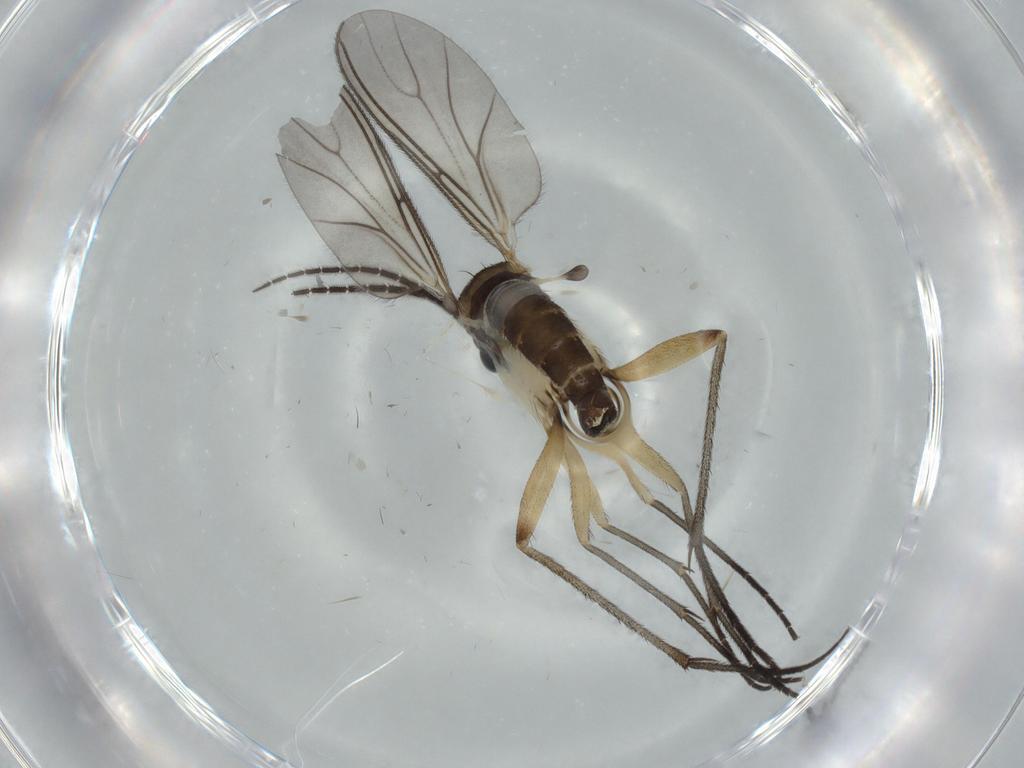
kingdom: Animalia
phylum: Arthropoda
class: Insecta
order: Diptera
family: Sciaridae
